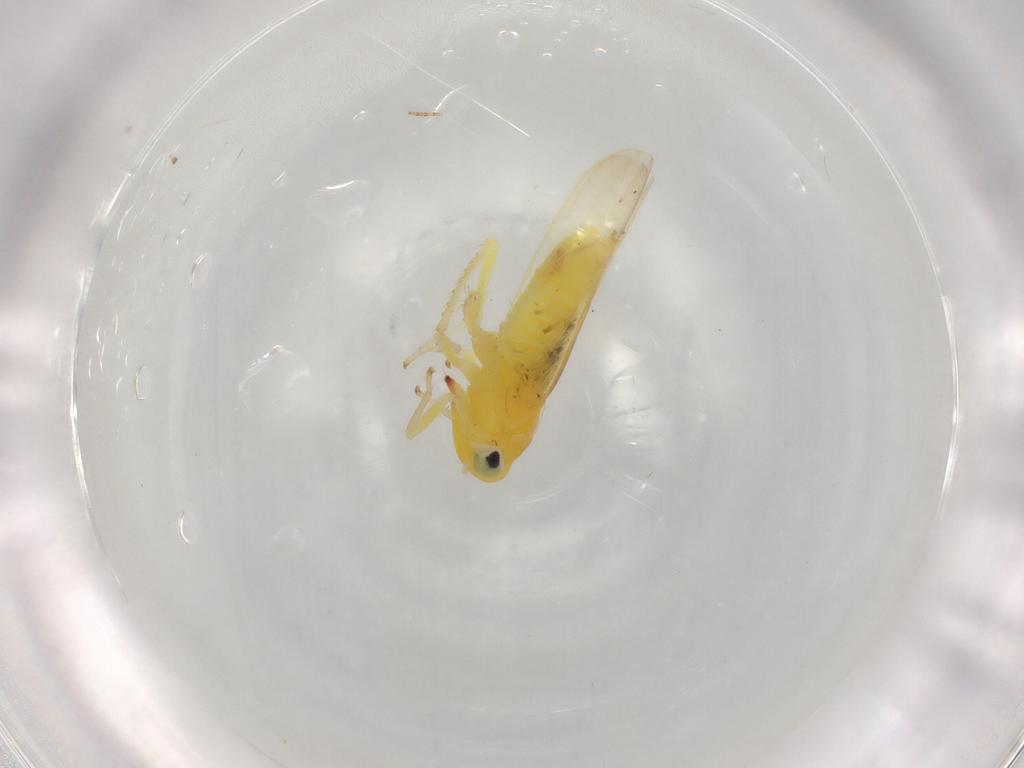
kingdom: Animalia
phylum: Arthropoda
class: Insecta
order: Hemiptera
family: Cicadellidae
